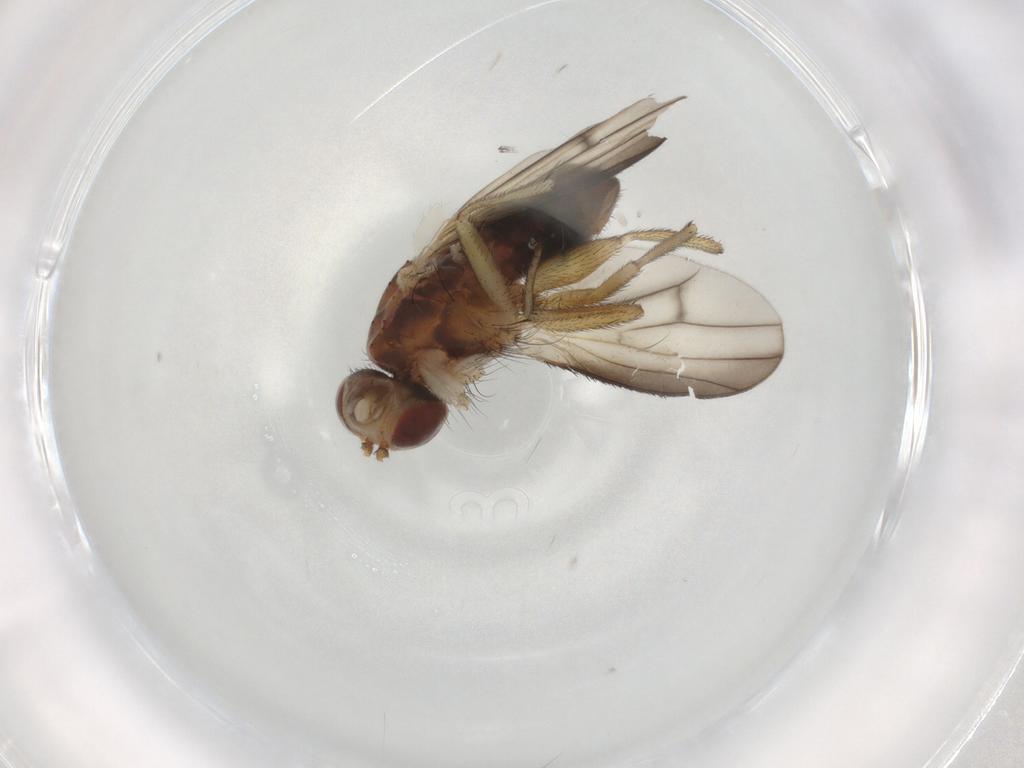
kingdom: Animalia
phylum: Arthropoda
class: Insecta
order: Diptera
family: Heleomyzidae
